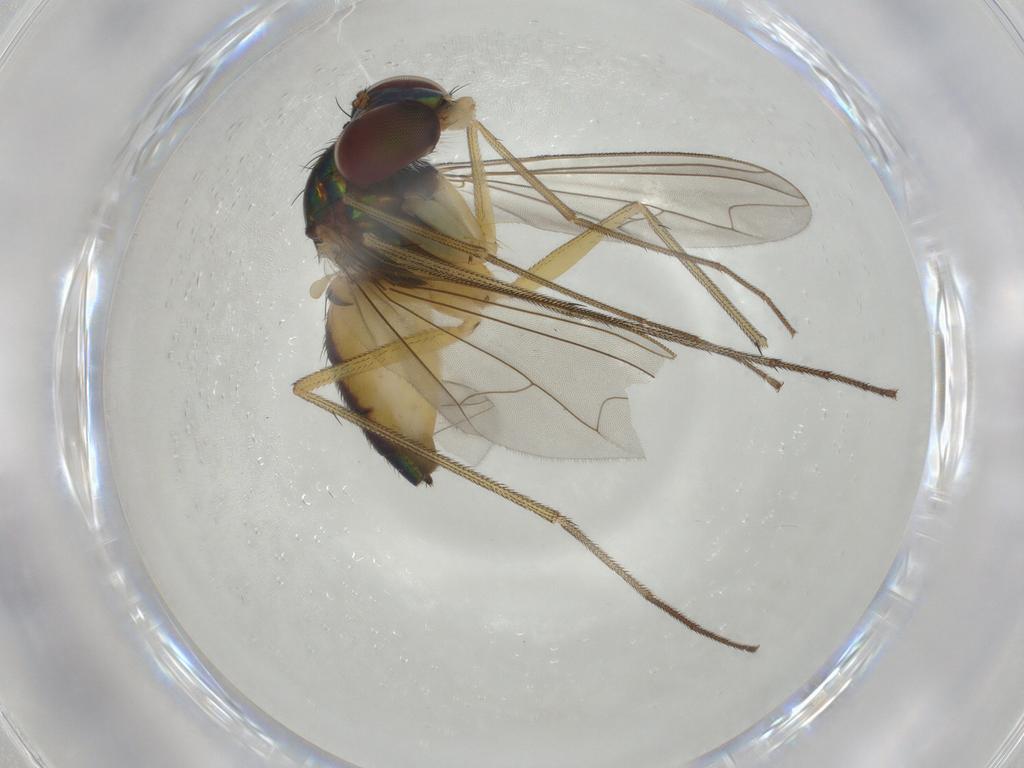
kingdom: Animalia
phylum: Arthropoda
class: Insecta
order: Diptera
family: Dolichopodidae
